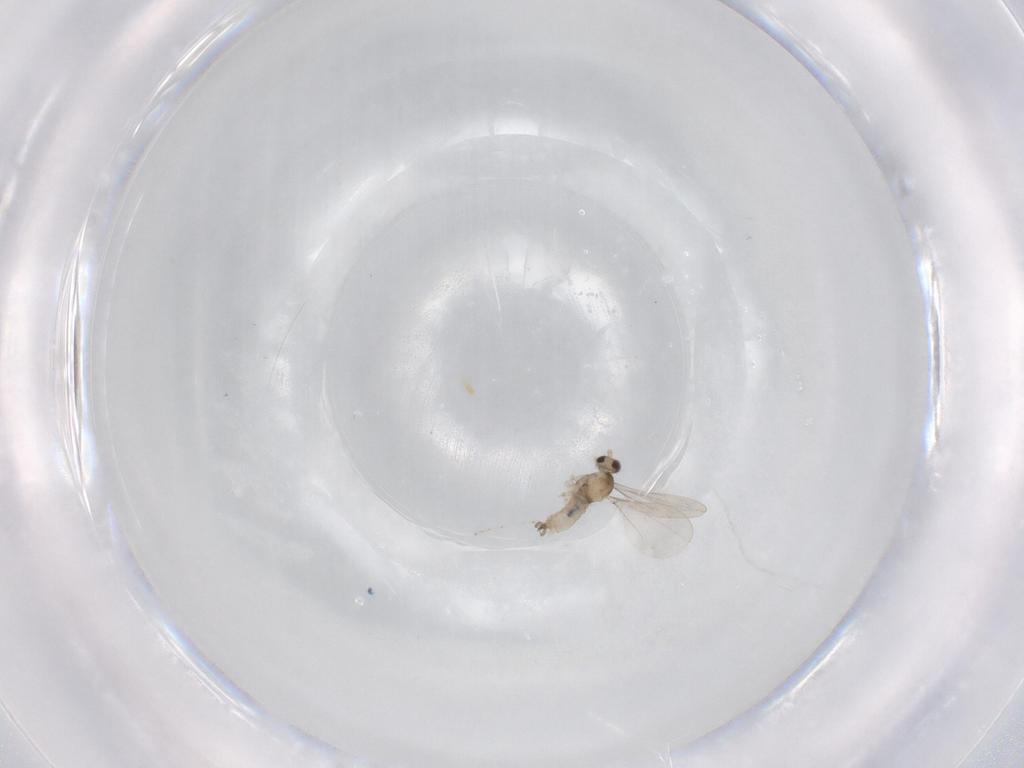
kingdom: Animalia
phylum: Arthropoda
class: Insecta
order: Diptera
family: Cecidomyiidae
